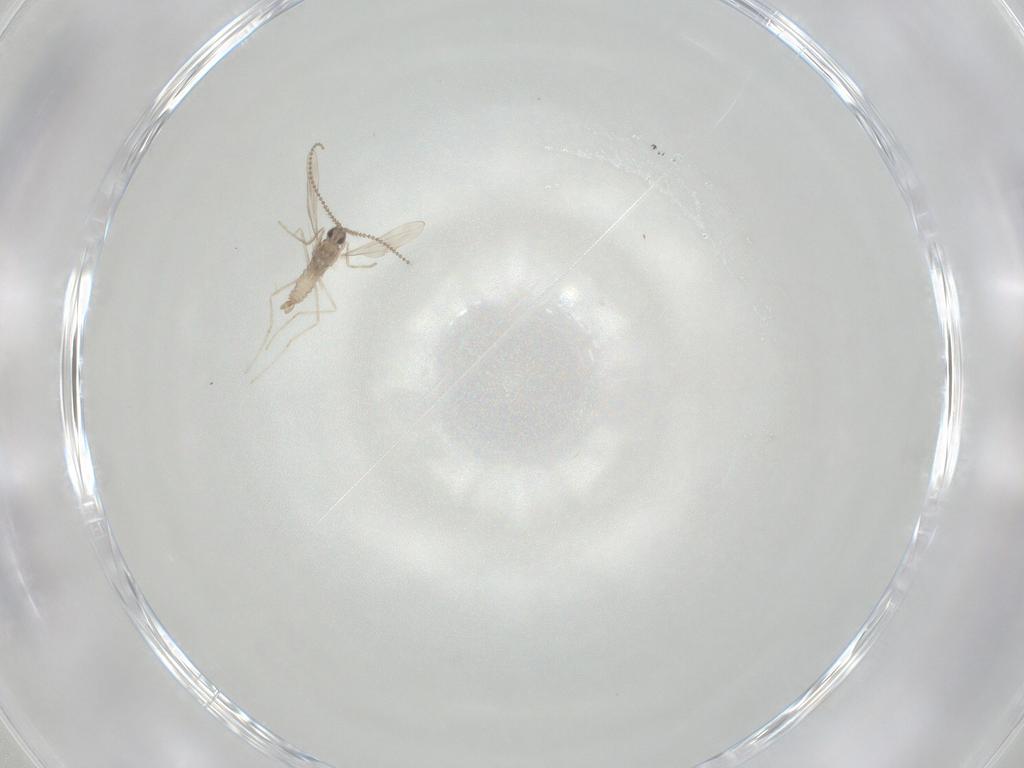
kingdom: Animalia
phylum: Arthropoda
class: Insecta
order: Diptera
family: Cecidomyiidae
